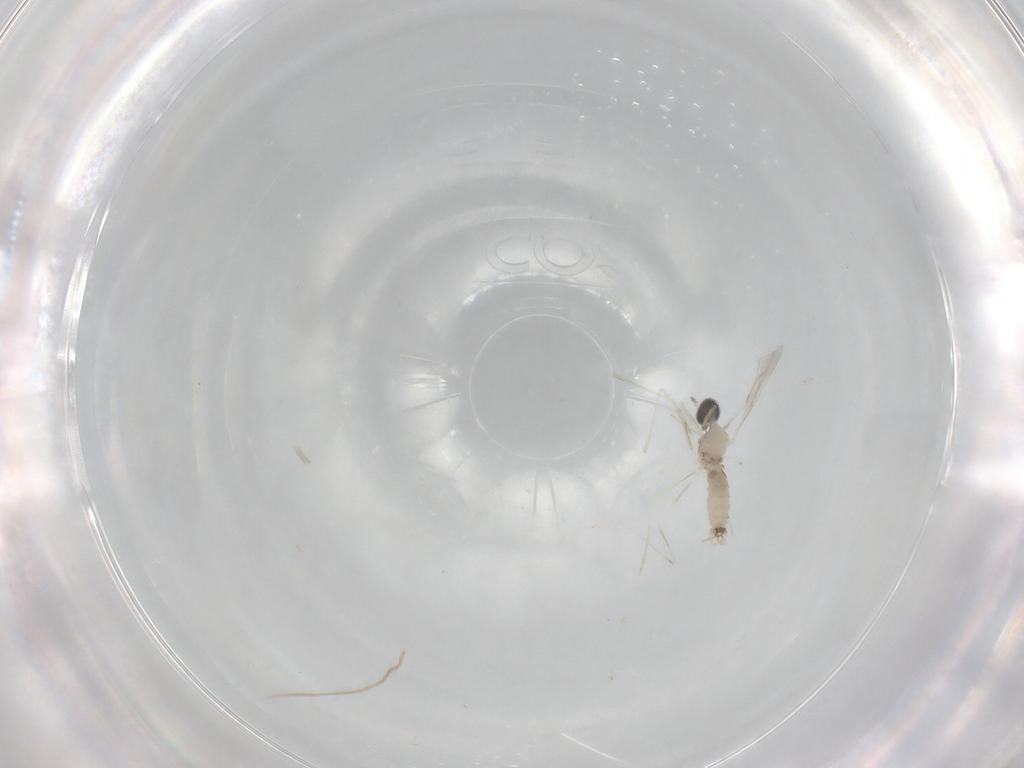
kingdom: Animalia
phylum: Arthropoda
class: Insecta
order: Diptera
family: Cecidomyiidae
